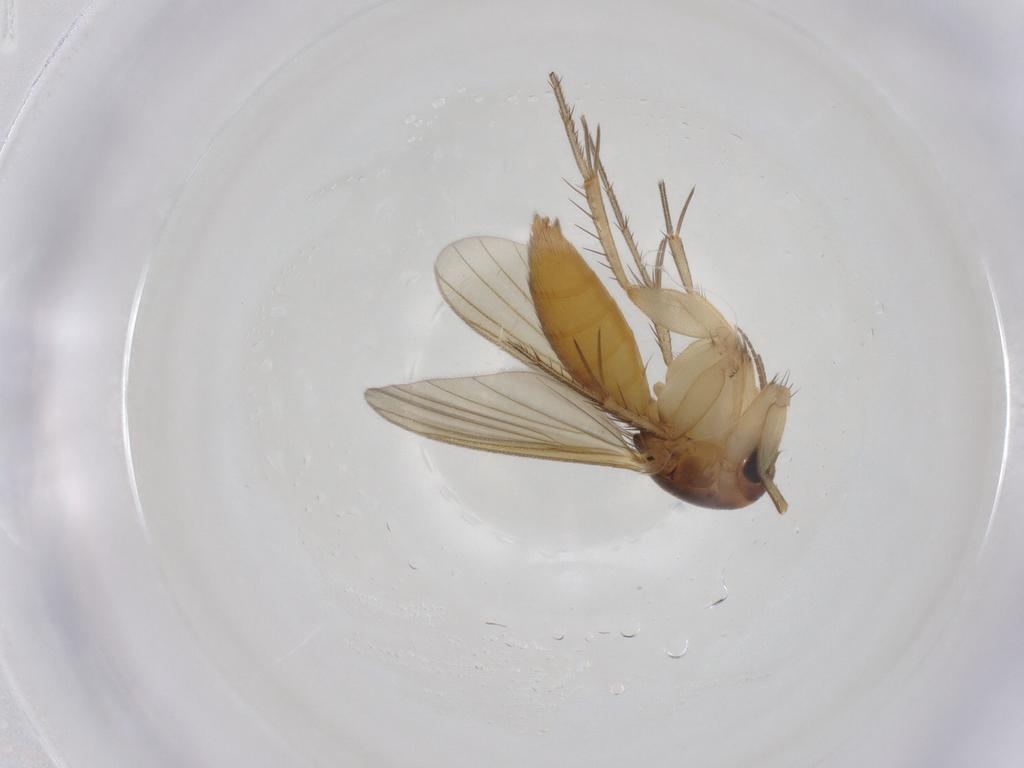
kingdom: Animalia
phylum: Arthropoda
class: Insecta
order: Diptera
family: Mycetophilidae
